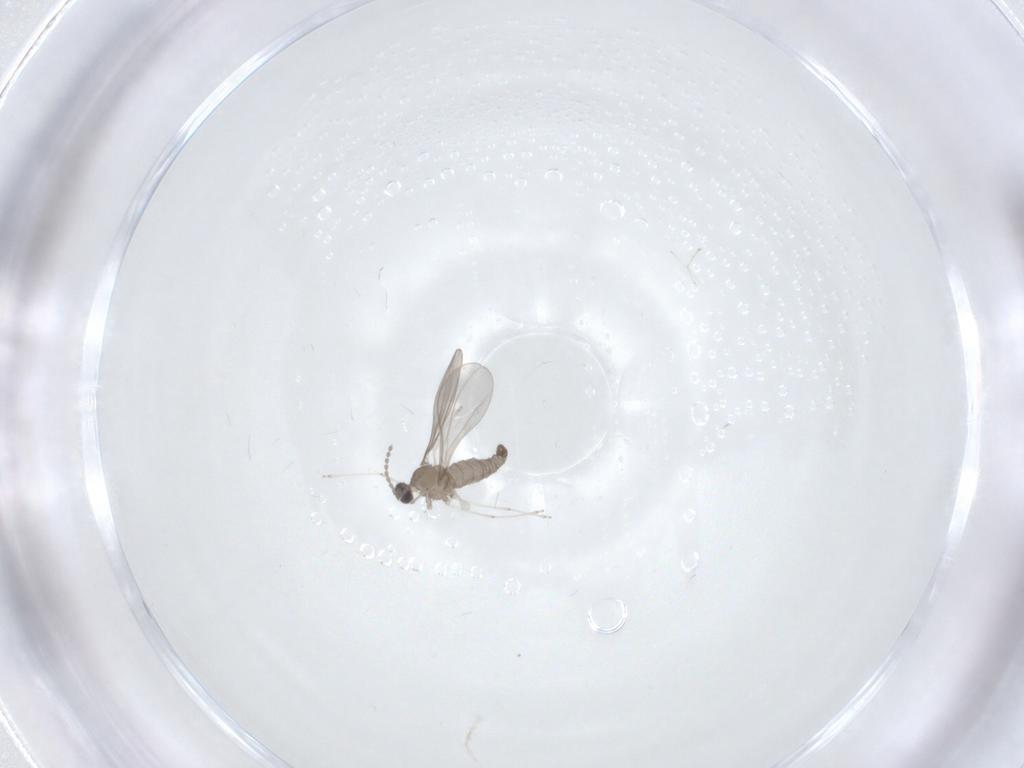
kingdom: Animalia
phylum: Arthropoda
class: Insecta
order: Diptera
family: Cecidomyiidae
